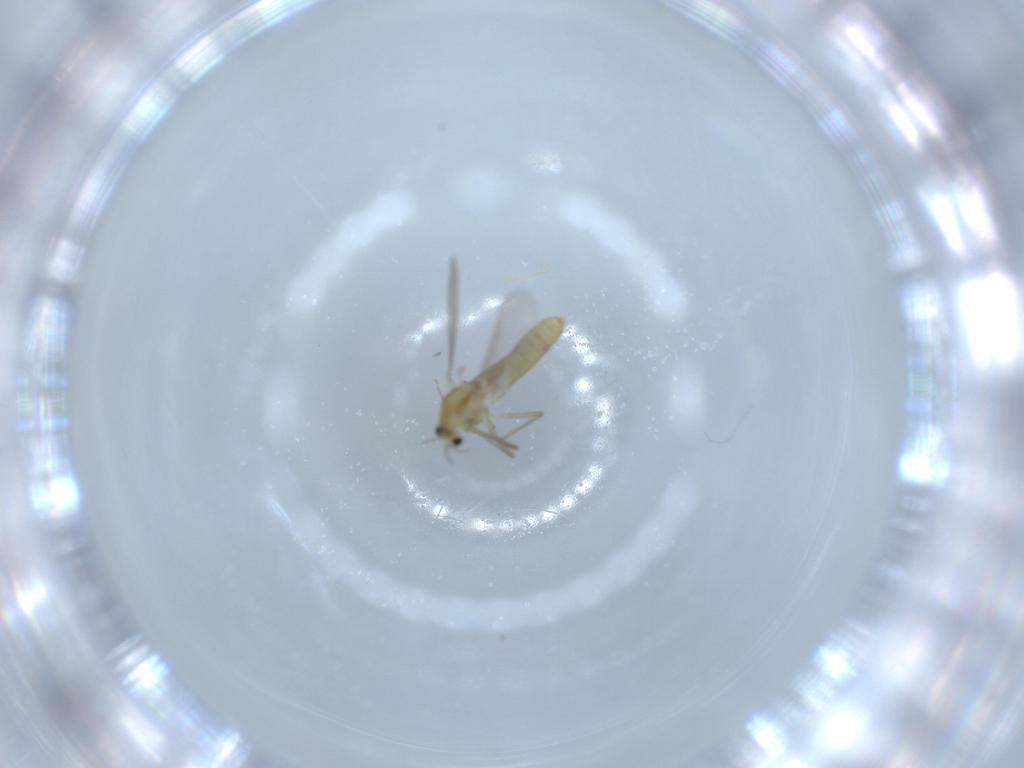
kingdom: Animalia
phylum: Arthropoda
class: Insecta
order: Diptera
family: Chironomidae
